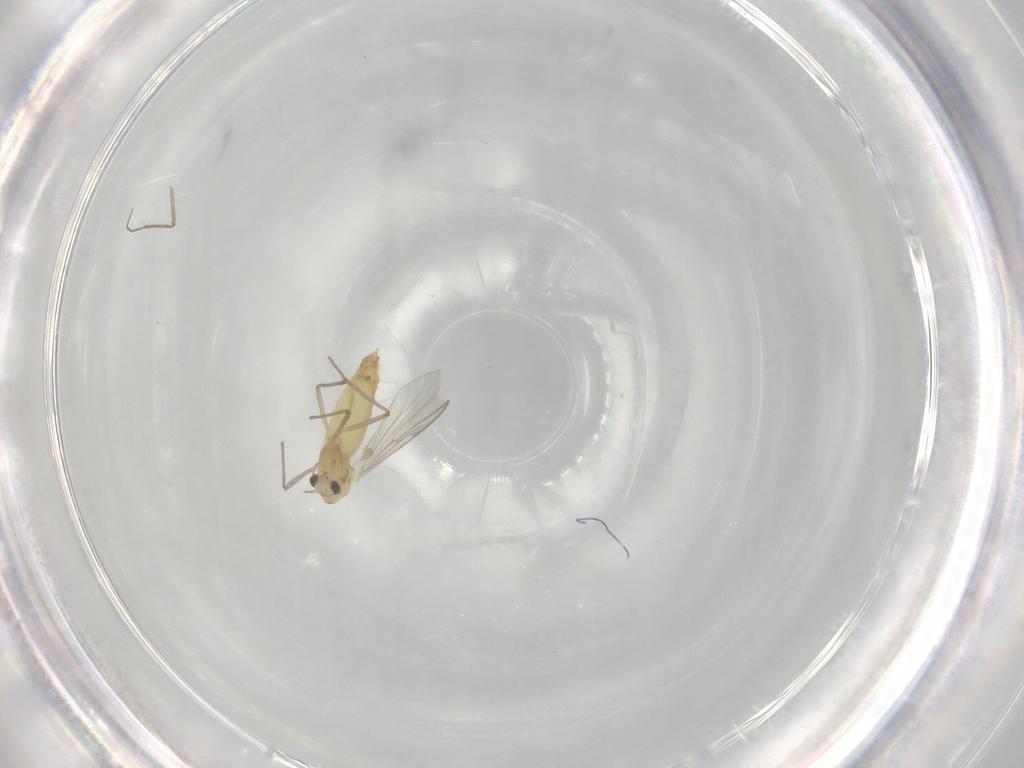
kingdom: Animalia
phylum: Arthropoda
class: Insecta
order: Diptera
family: Chironomidae
